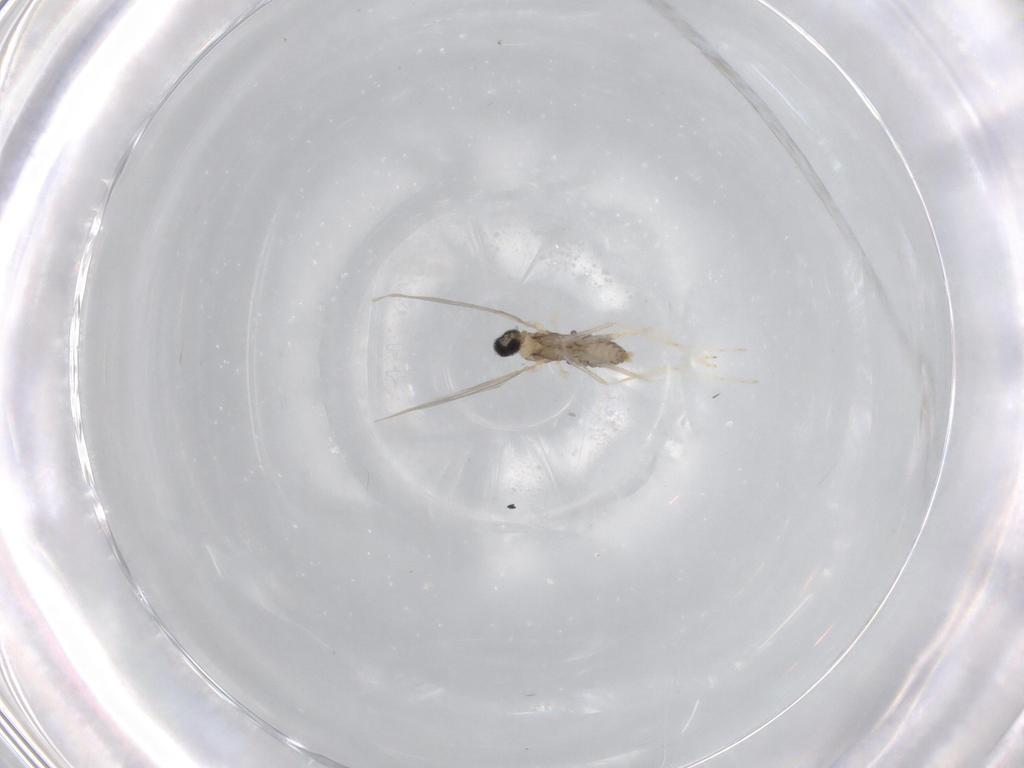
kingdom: Animalia
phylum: Arthropoda
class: Insecta
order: Diptera
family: Cecidomyiidae
